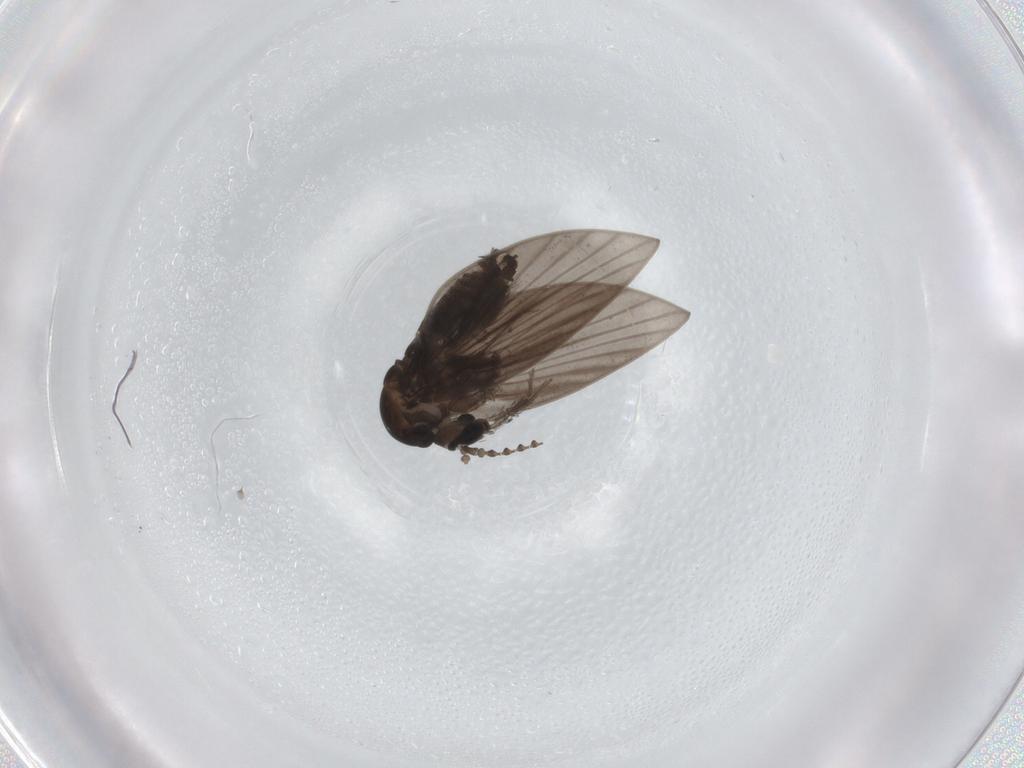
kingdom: Animalia
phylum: Arthropoda
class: Insecta
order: Diptera
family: Psychodidae
